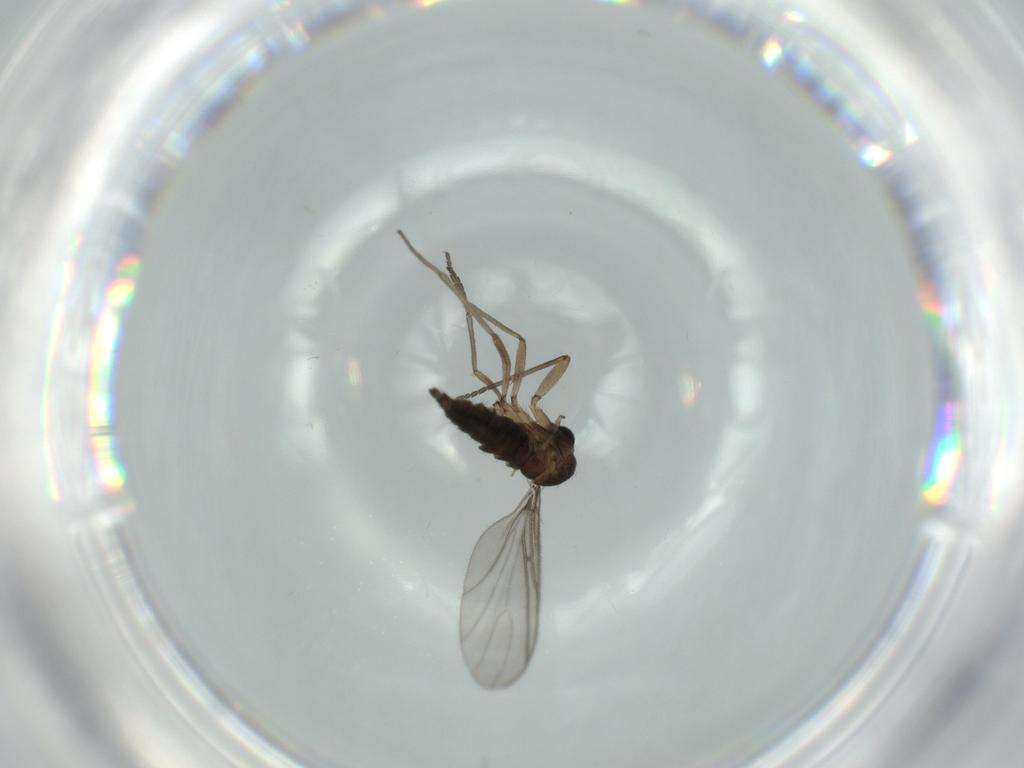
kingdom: Animalia
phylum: Arthropoda
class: Insecta
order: Diptera
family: Sciaridae
